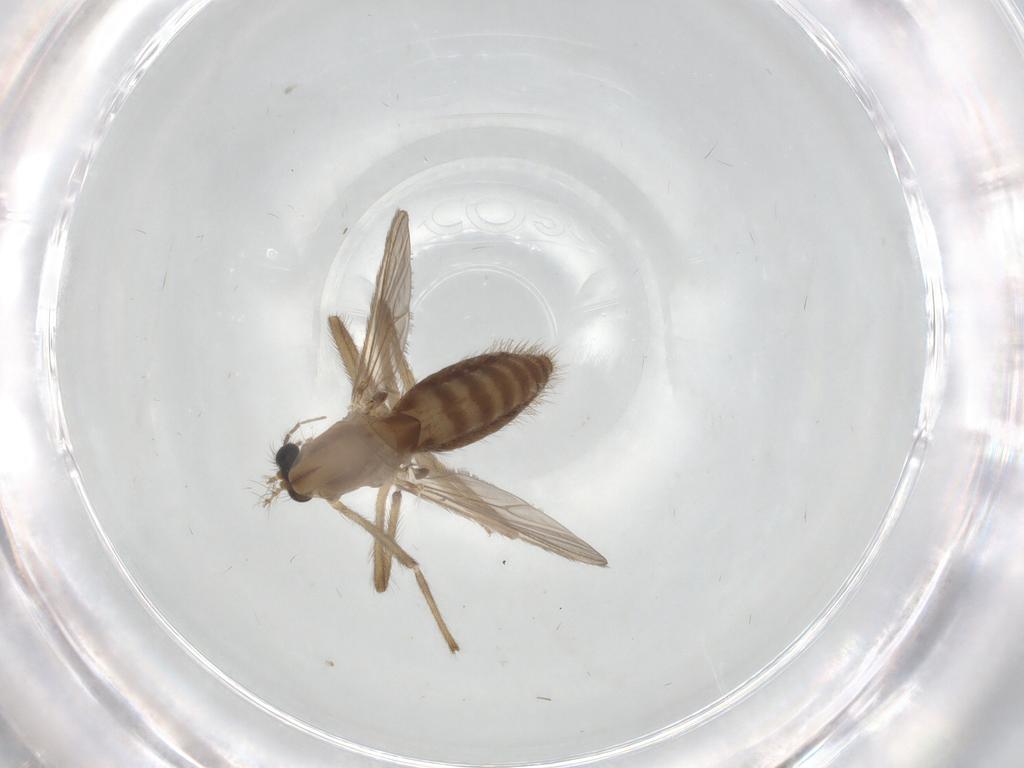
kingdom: Animalia
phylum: Arthropoda
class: Insecta
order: Diptera
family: Chironomidae
